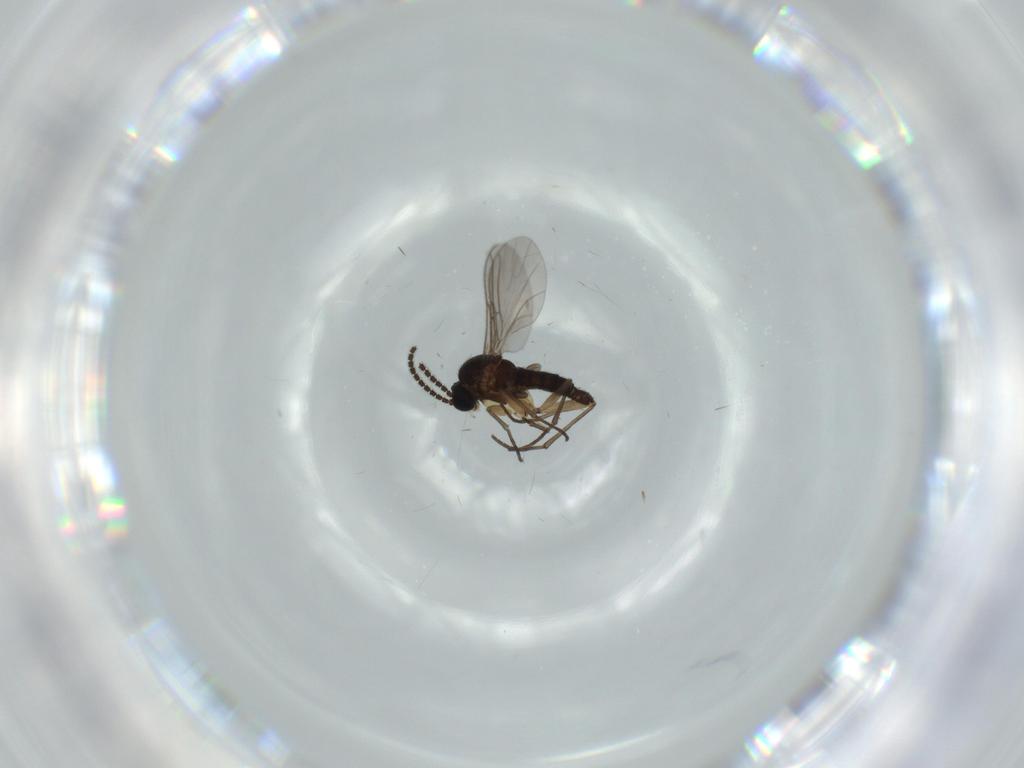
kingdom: Animalia
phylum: Arthropoda
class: Insecta
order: Diptera
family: Sciaridae
